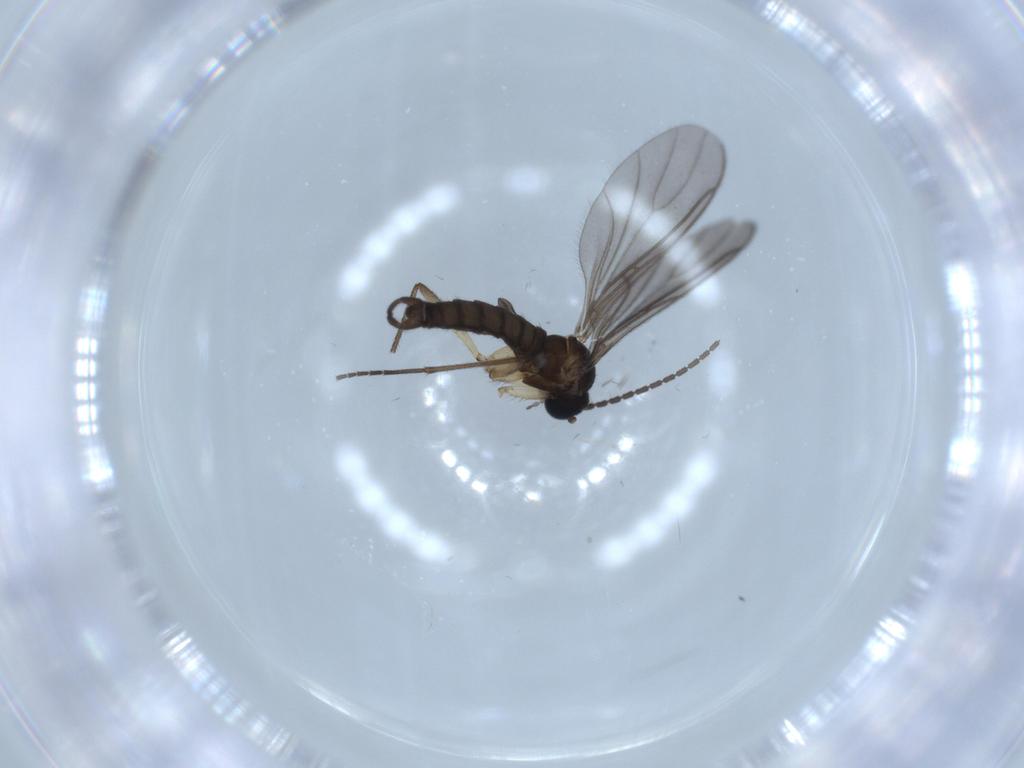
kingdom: Animalia
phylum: Arthropoda
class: Insecta
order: Diptera
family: Sciaridae
